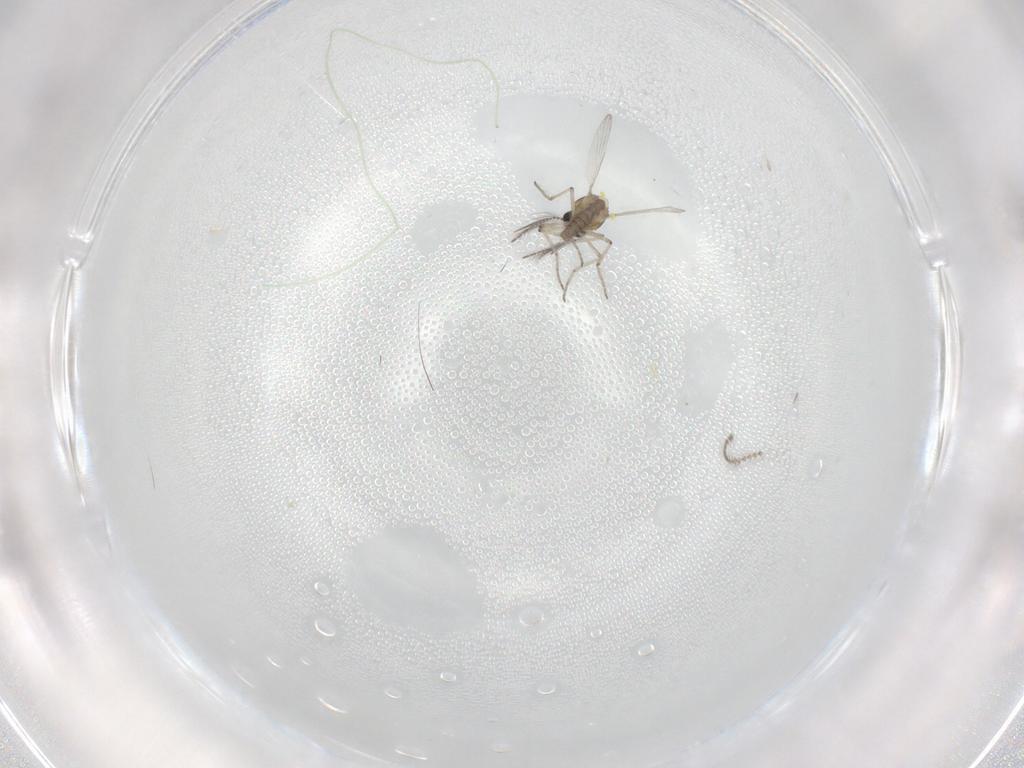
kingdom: Animalia
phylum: Arthropoda
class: Insecta
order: Diptera
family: Ceratopogonidae
